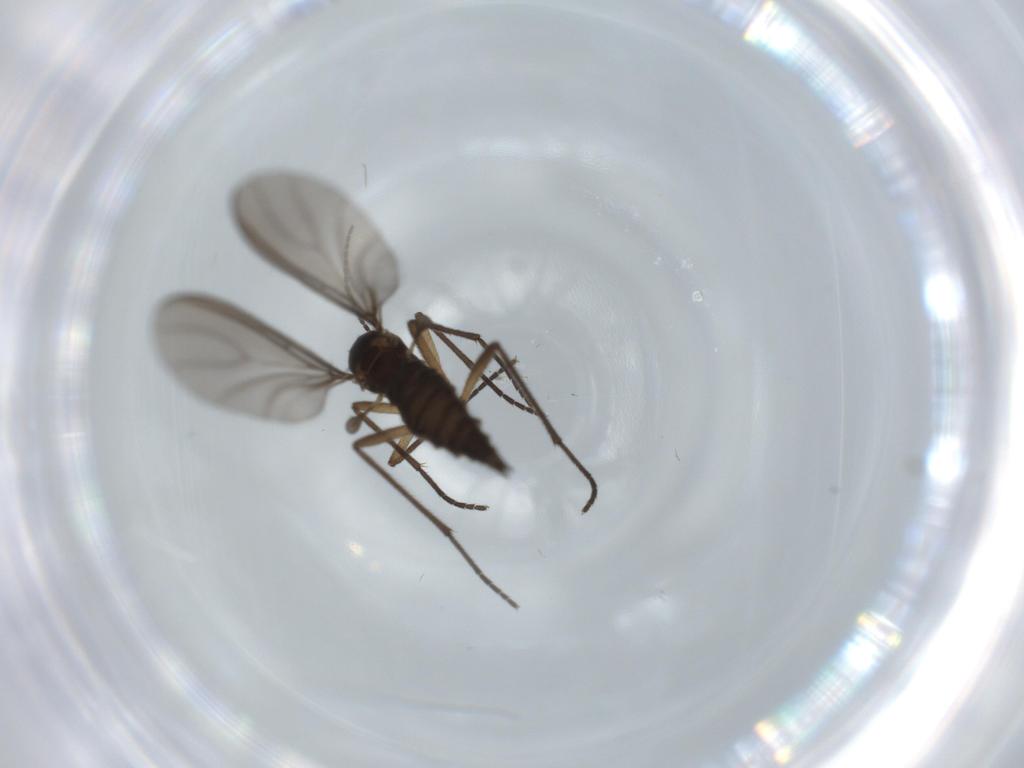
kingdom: Animalia
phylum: Arthropoda
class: Insecta
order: Diptera
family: Sciaridae
